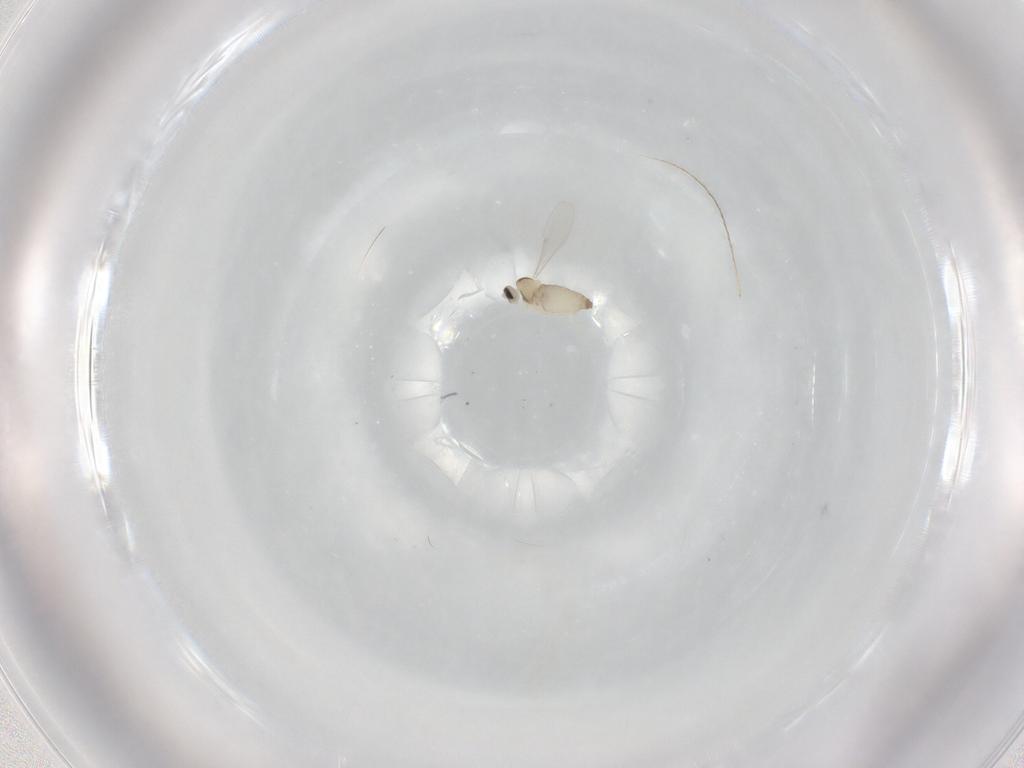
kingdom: Animalia
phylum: Arthropoda
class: Insecta
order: Diptera
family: Cecidomyiidae
